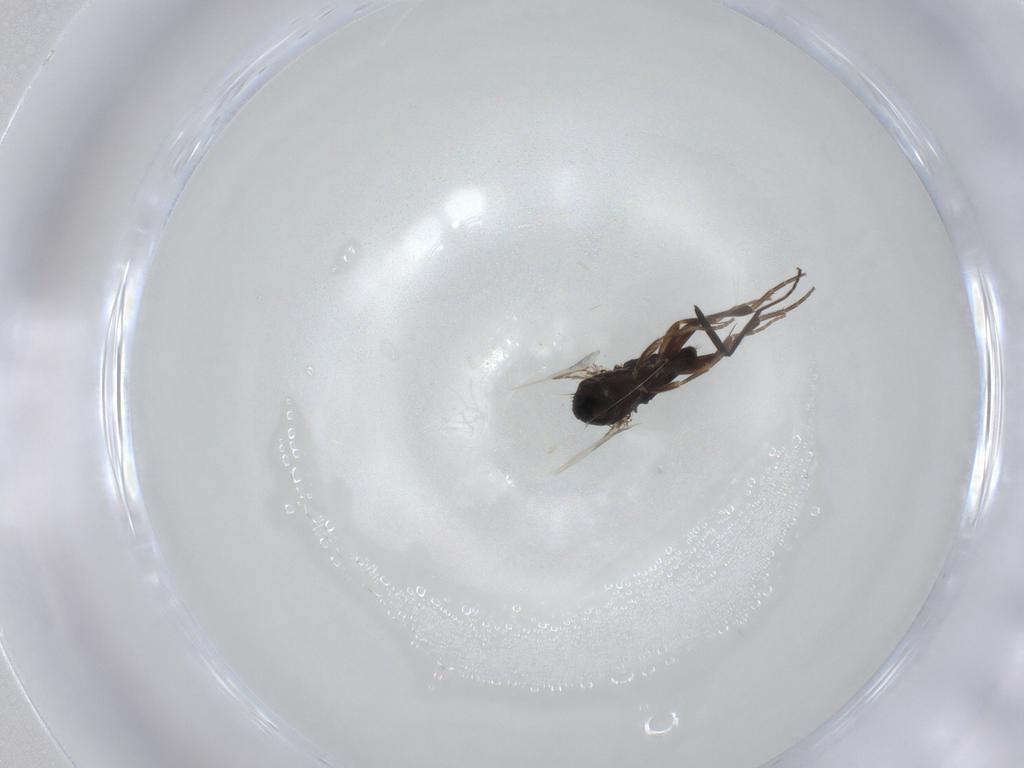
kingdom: Animalia
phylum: Arthropoda
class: Insecta
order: Diptera
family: Phoridae
